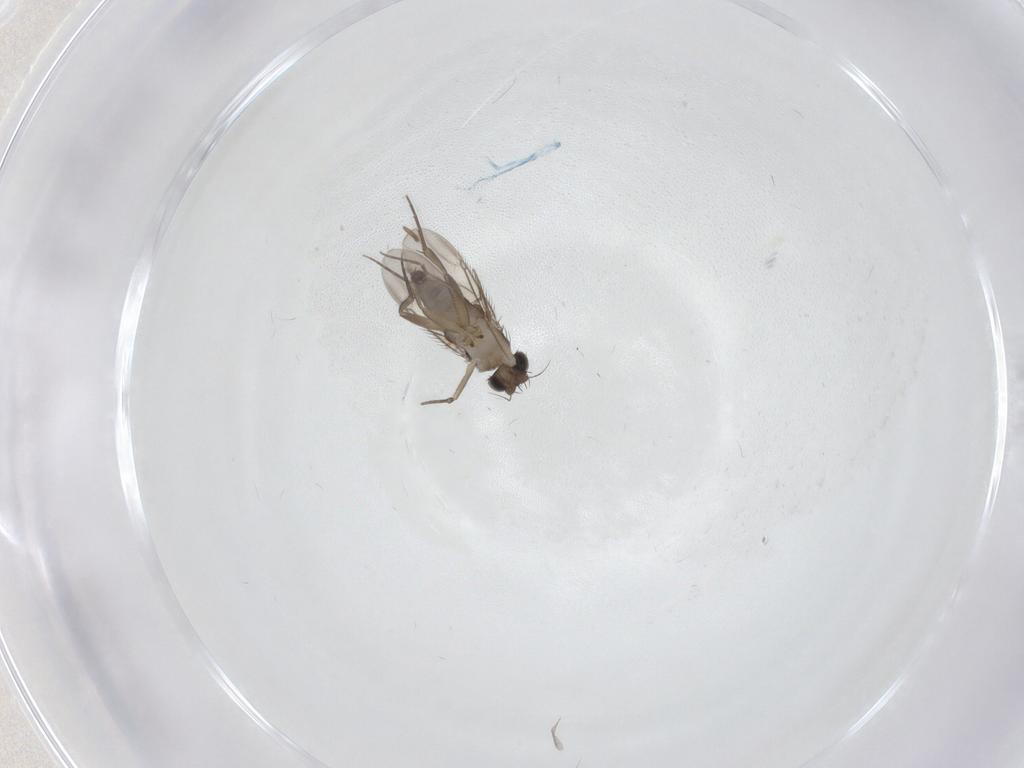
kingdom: Animalia
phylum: Arthropoda
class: Insecta
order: Diptera
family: Phoridae
